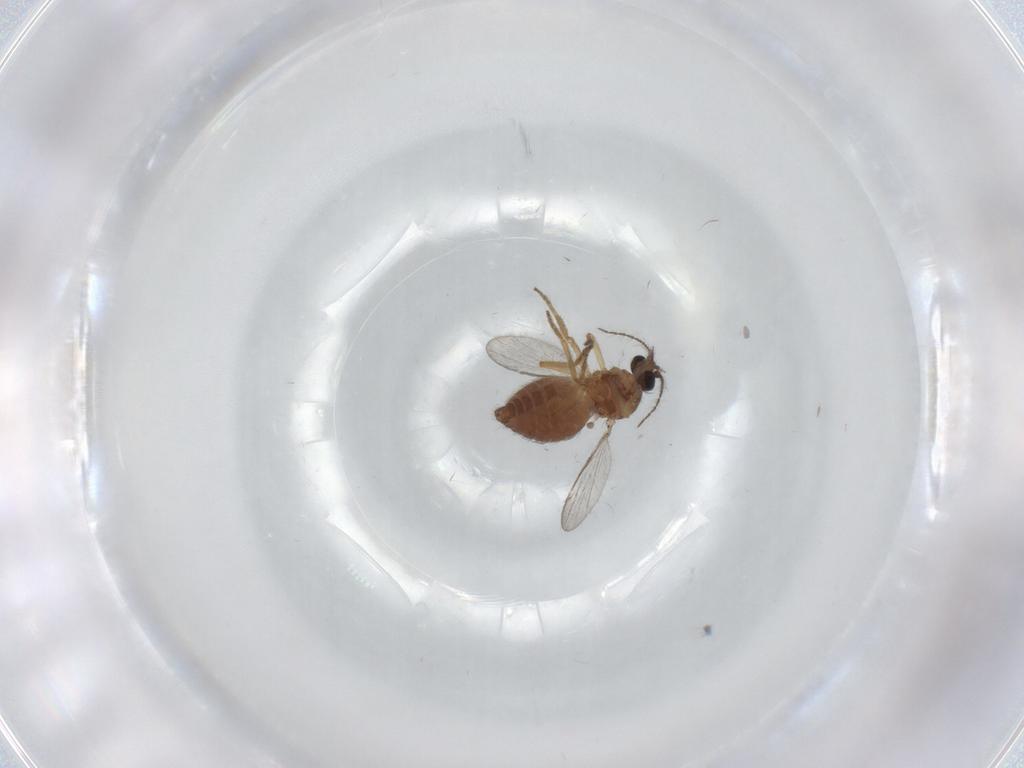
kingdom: Animalia
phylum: Arthropoda
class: Insecta
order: Diptera
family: Ceratopogonidae
